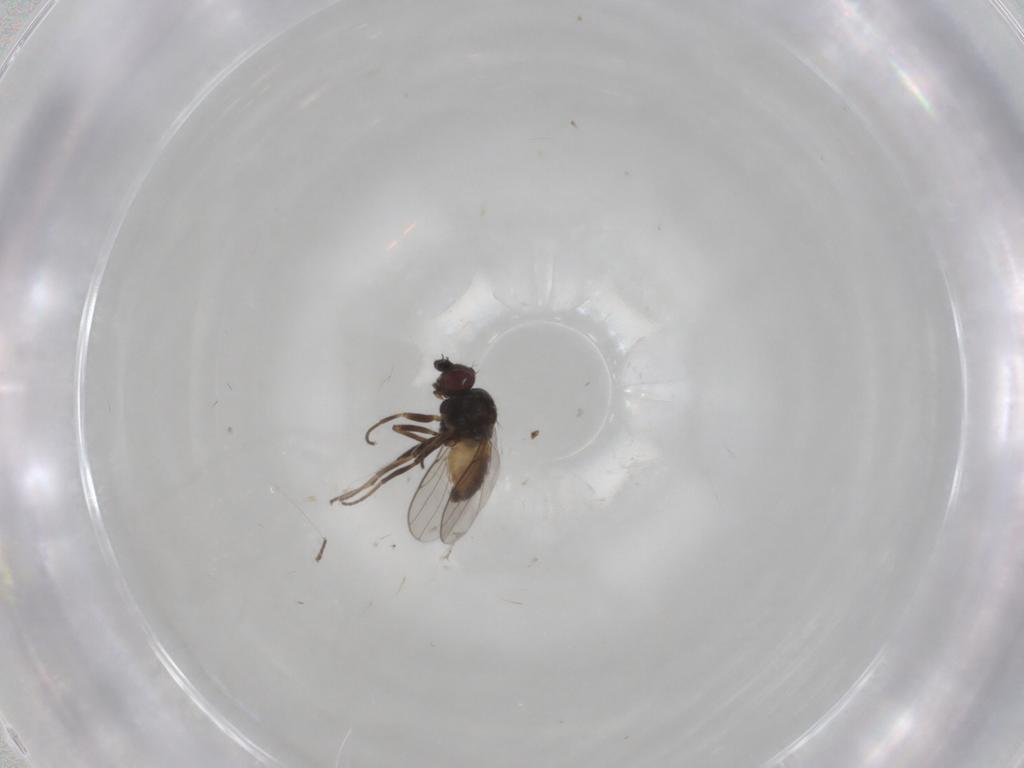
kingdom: Animalia
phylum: Arthropoda
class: Insecta
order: Diptera
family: Chloropidae
